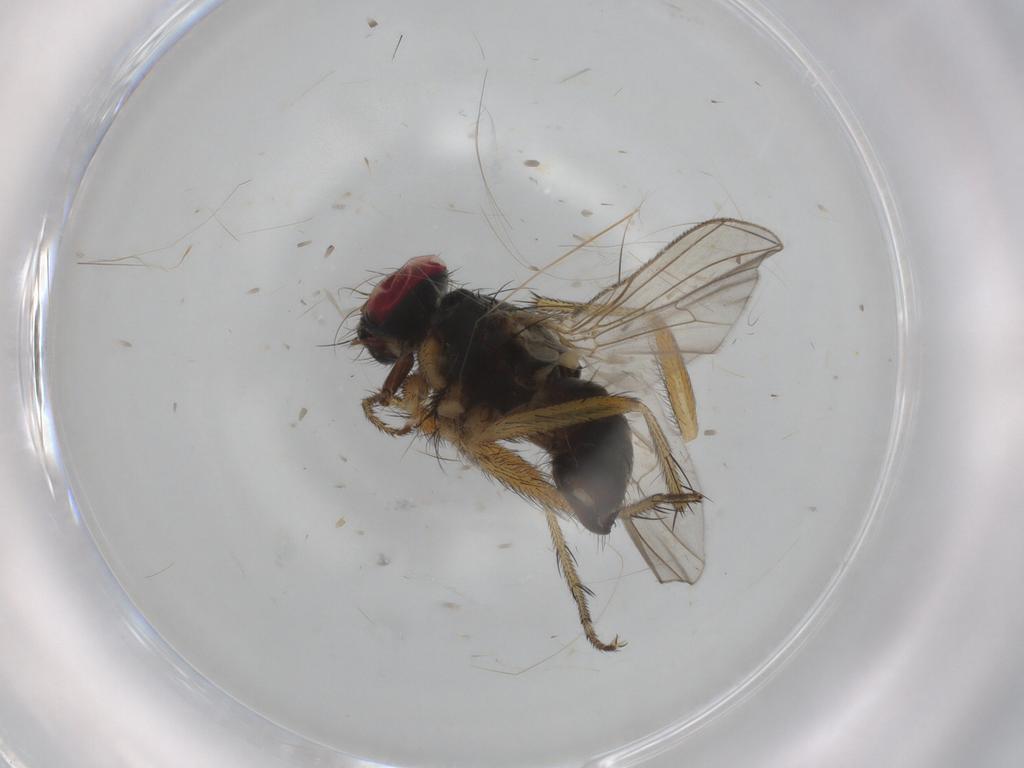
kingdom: Animalia
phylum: Arthropoda
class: Insecta
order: Diptera
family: Muscidae
